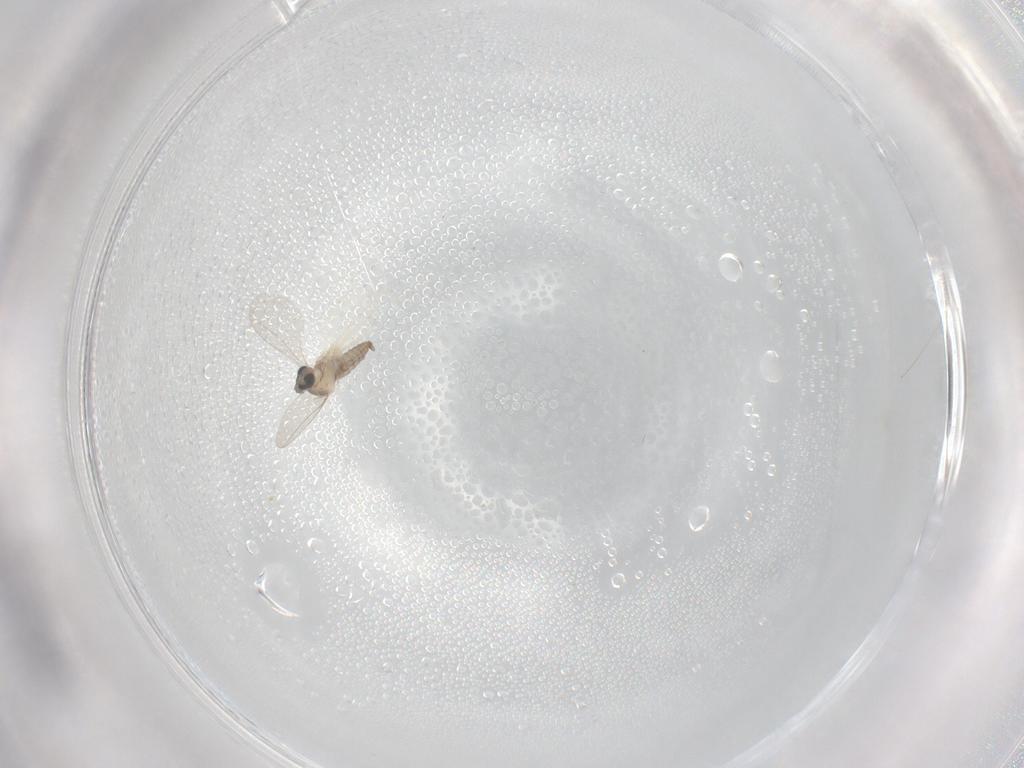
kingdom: Animalia
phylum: Arthropoda
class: Insecta
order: Diptera
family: Cecidomyiidae
